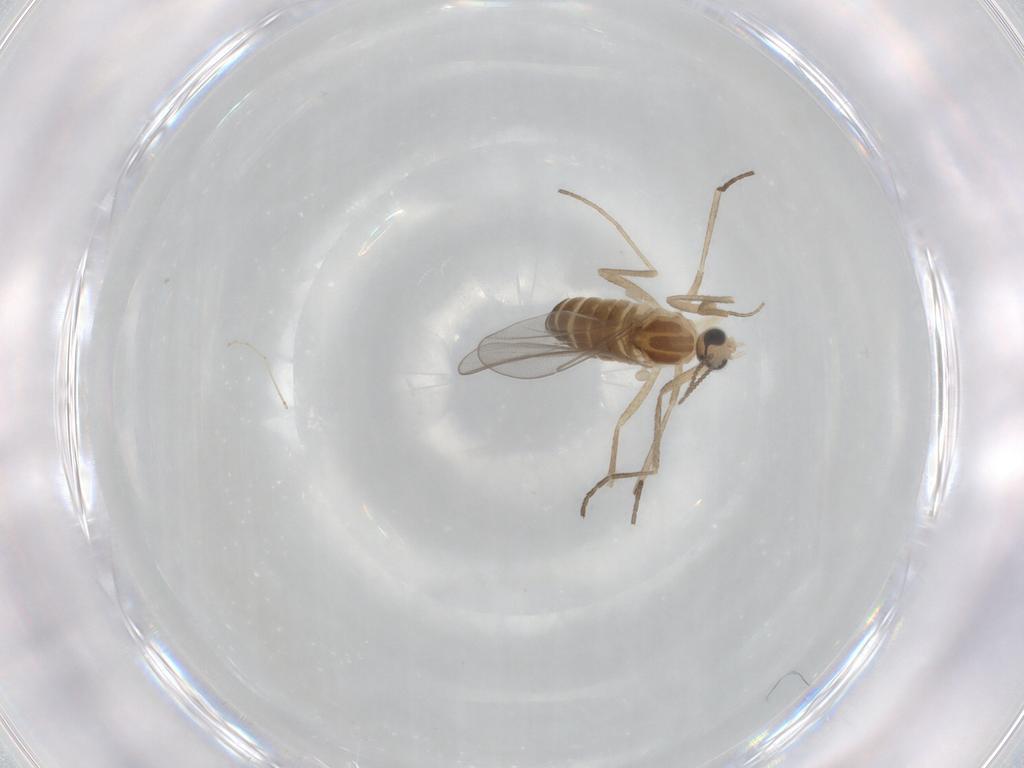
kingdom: Animalia
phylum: Arthropoda
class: Insecta
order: Diptera
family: Cecidomyiidae
